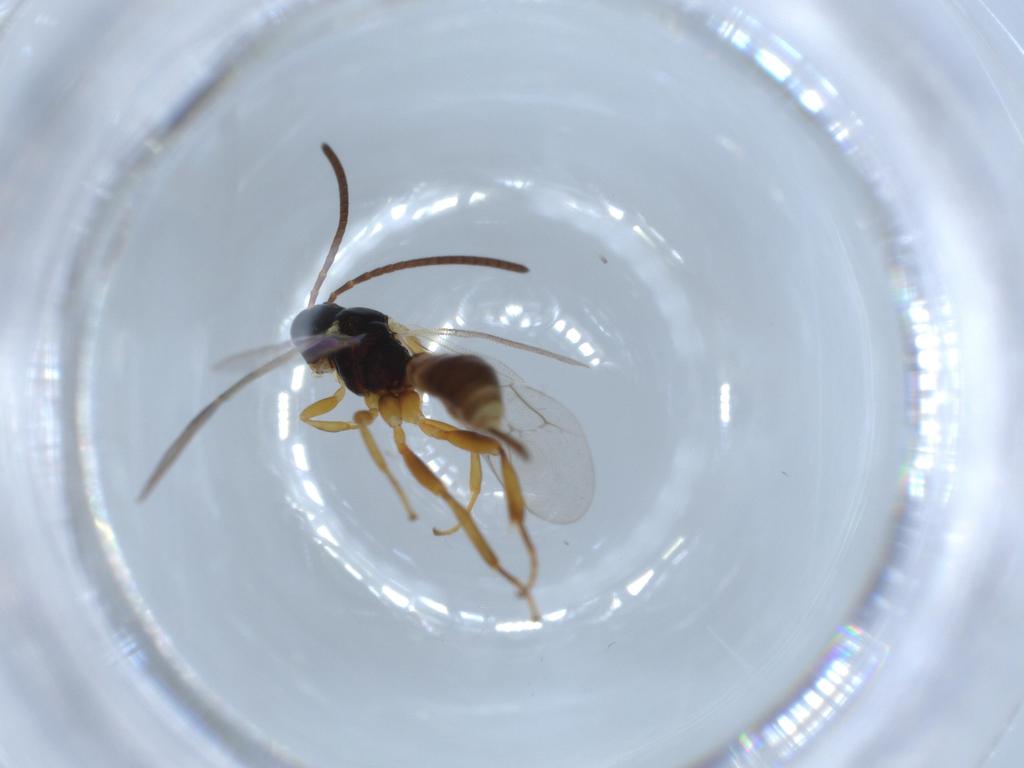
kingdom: Animalia
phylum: Arthropoda
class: Insecta
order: Hymenoptera
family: Ichneumonidae
